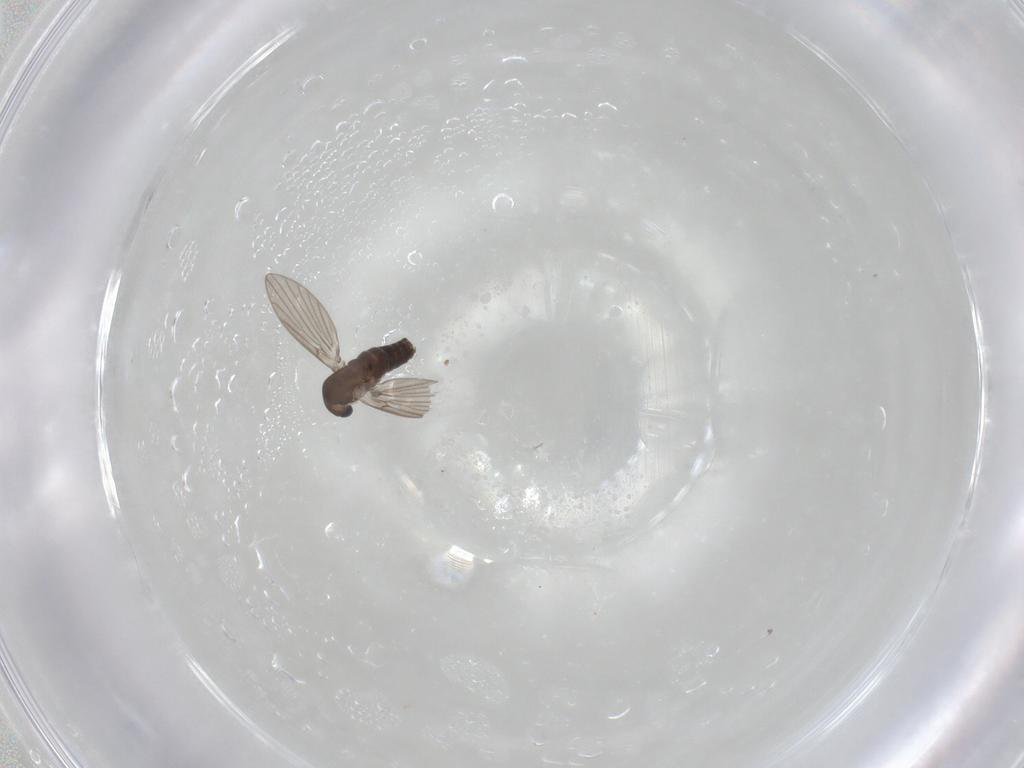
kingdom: Animalia
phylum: Arthropoda
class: Insecta
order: Diptera
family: Psychodidae
